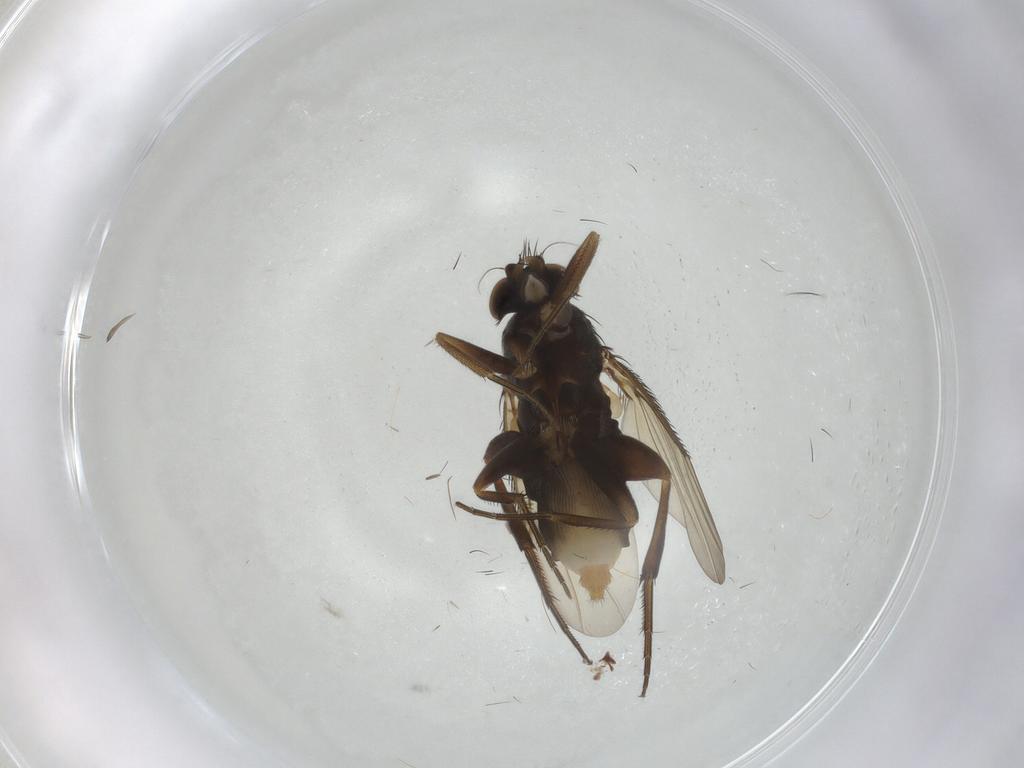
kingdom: Animalia
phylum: Arthropoda
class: Insecta
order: Diptera
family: Phoridae
